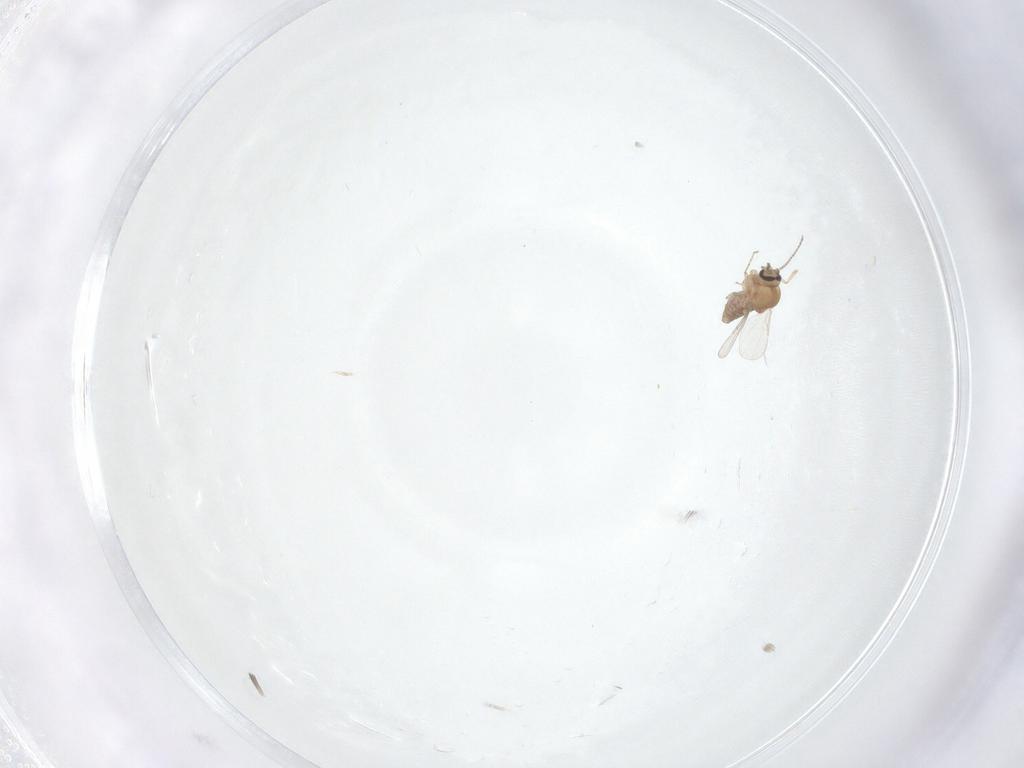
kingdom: Animalia
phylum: Arthropoda
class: Insecta
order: Diptera
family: Ceratopogonidae
